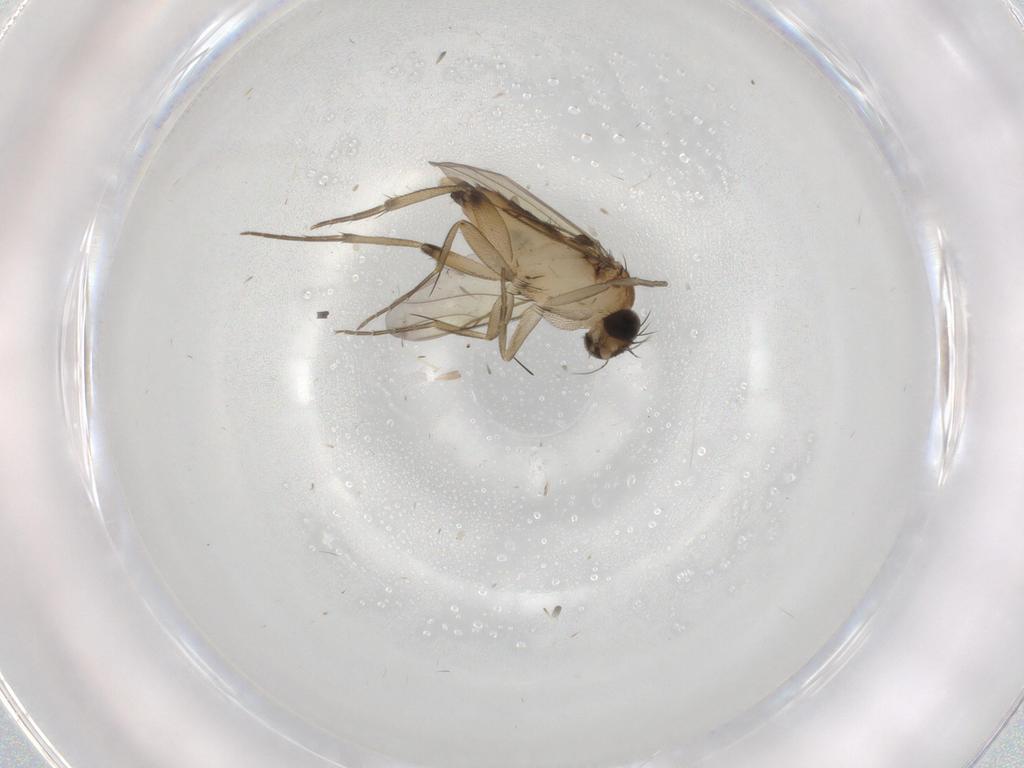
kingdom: Animalia
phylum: Arthropoda
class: Insecta
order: Diptera
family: Phoridae
